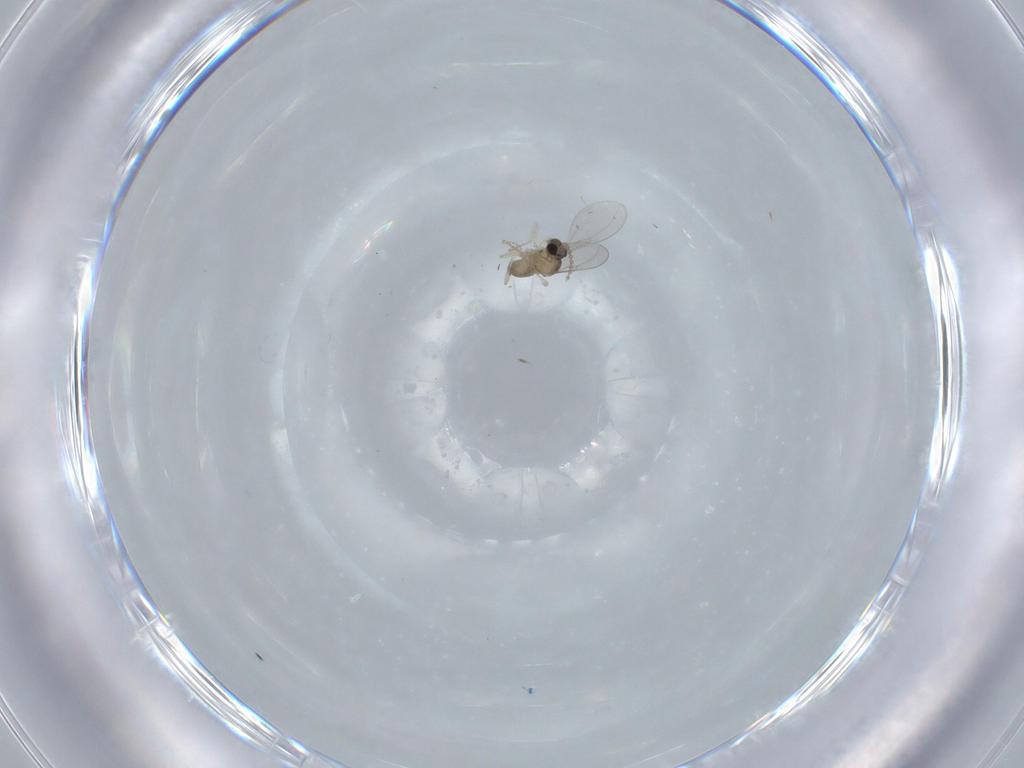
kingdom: Animalia
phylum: Arthropoda
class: Insecta
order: Diptera
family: Cecidomyiidae
